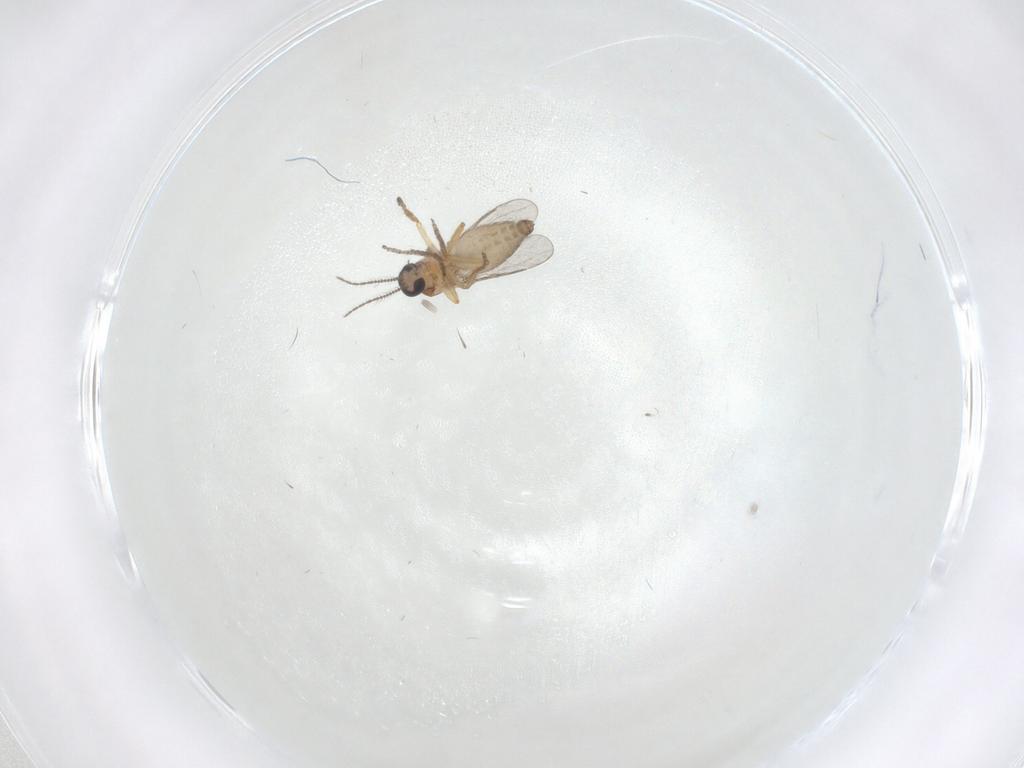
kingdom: Animalia
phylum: Arthropoda
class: Insecta
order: Diptera
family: Ceratopogonidae
